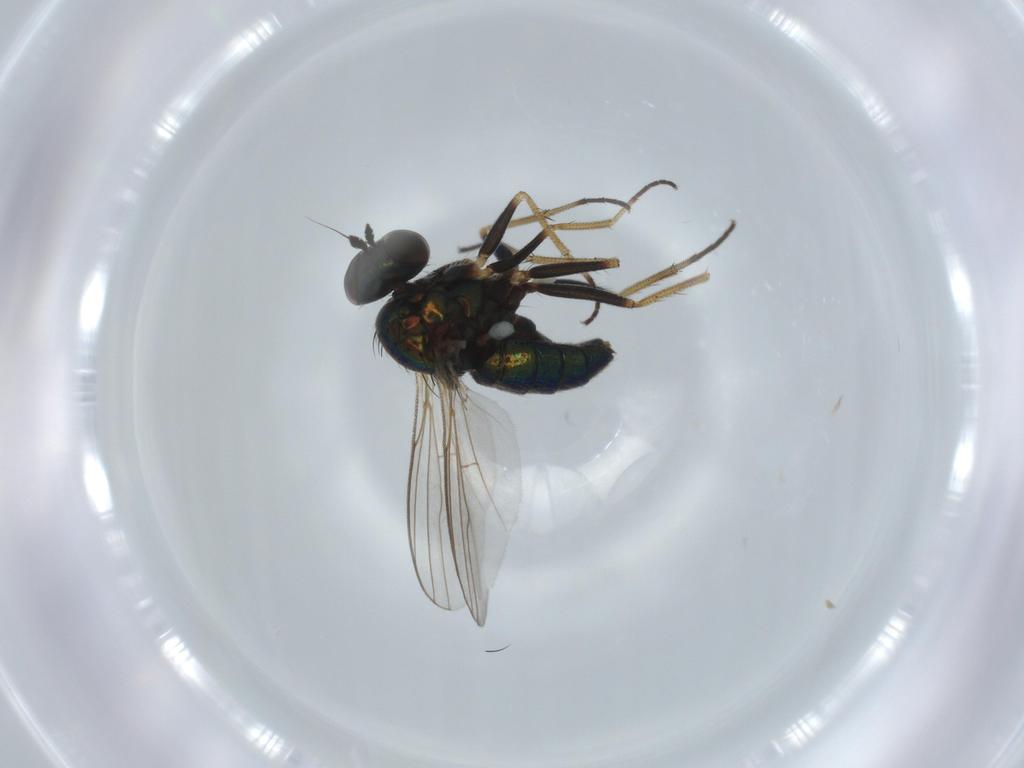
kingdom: Animalia
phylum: Arthropoda
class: Insecta
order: Diptera
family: Dolichopodidae
